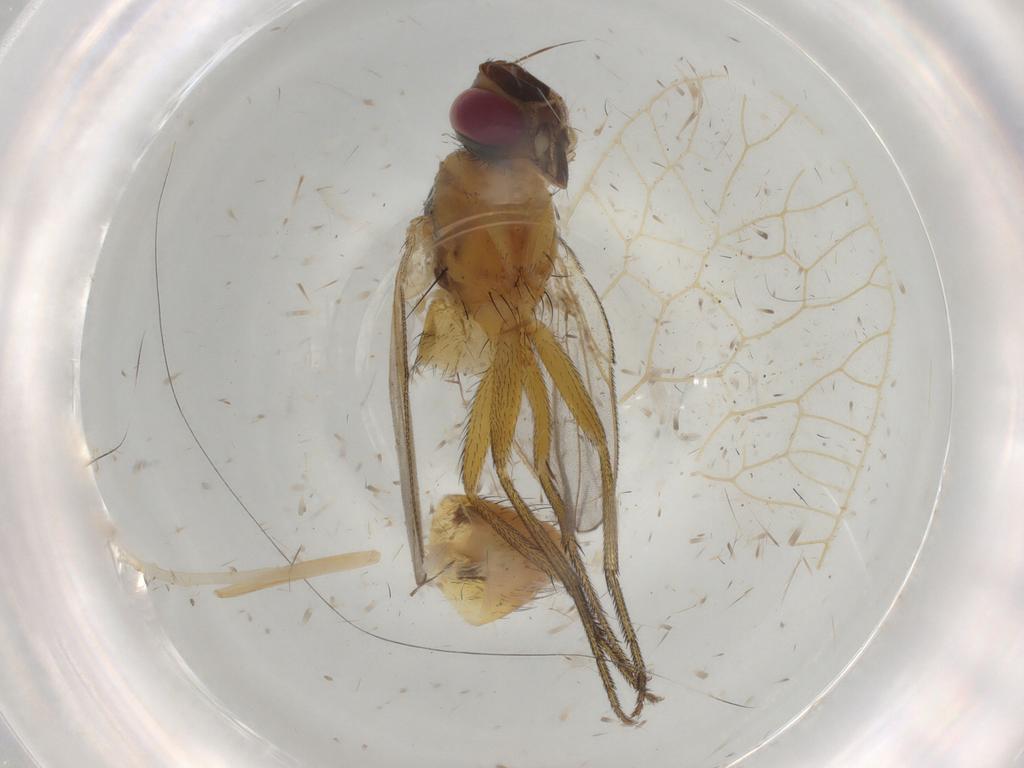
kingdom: Animalia
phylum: Arthropoda
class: Insecta
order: Diptera
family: Muscidae
